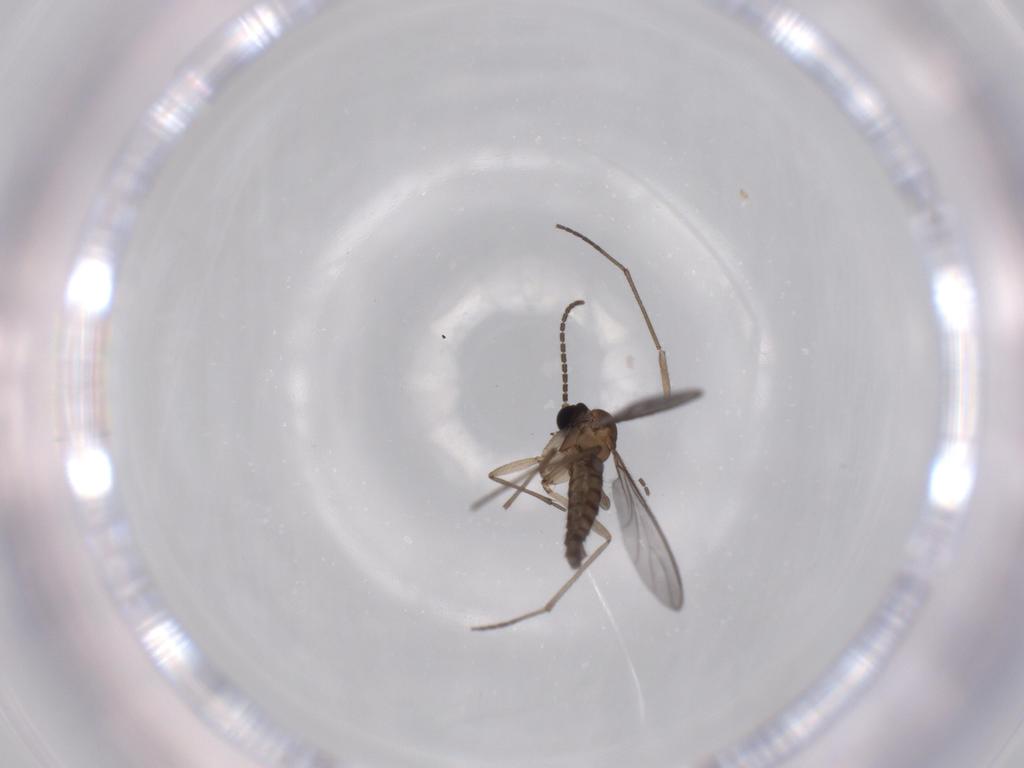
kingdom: Animalia
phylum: Arthropoda
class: Insecta
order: Diptera
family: Sciaridae
